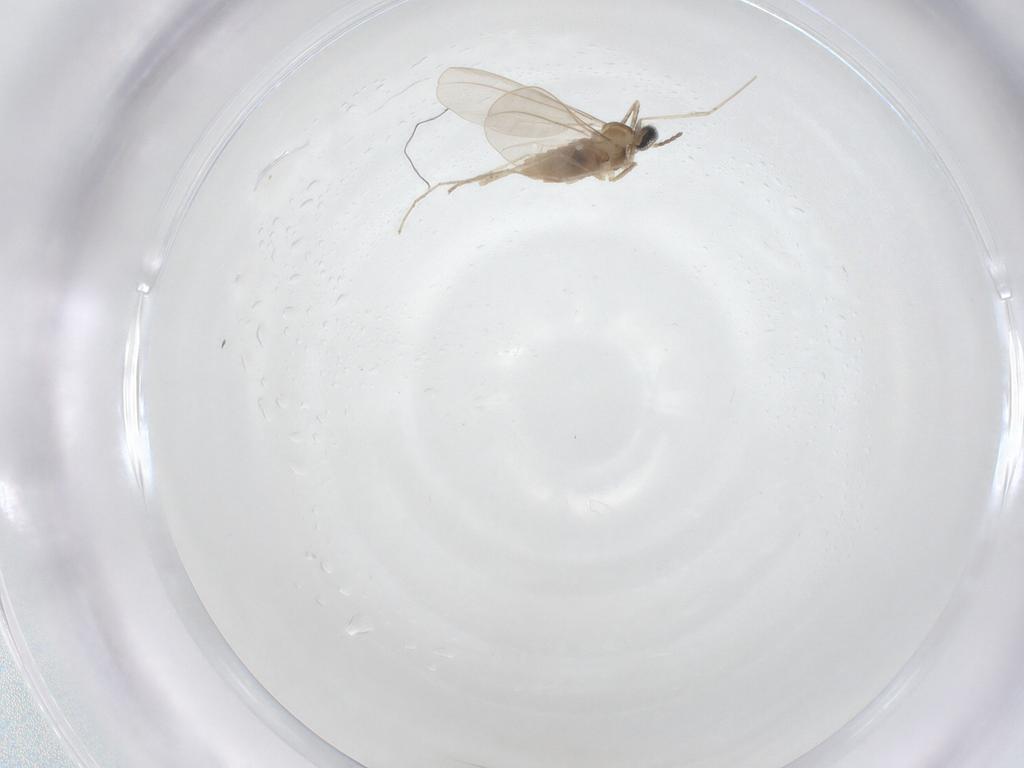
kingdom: Animalia
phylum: Arthropoda
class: Insecta
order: Diptera
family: Cecidomyiidae
